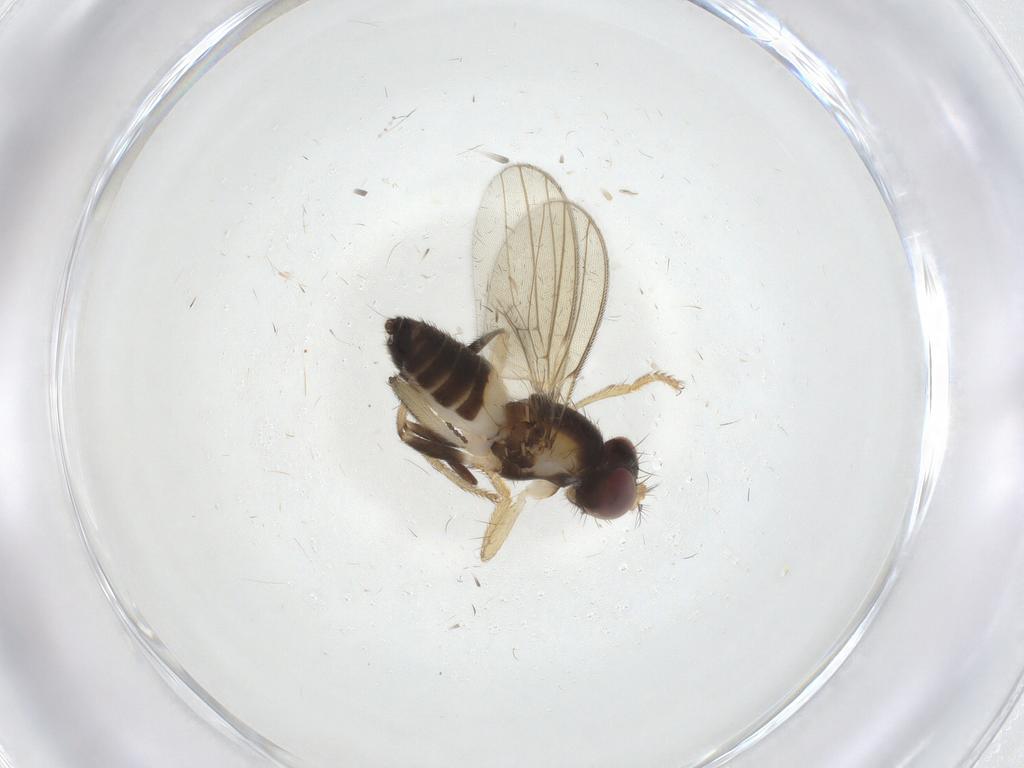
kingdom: Animalia
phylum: Arthropoda
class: Insecta
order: Diptera
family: Periscelididae
